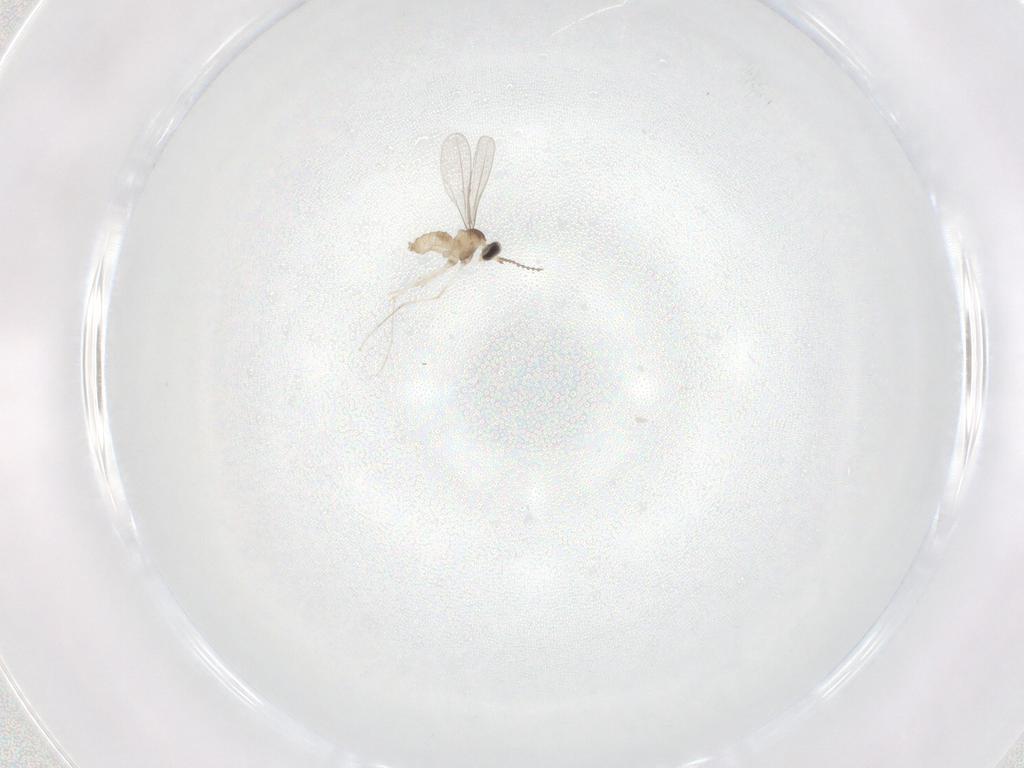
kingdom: Animalia
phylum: Arthropoda
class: Insecta
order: Diptera
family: Cecidomyiidae
